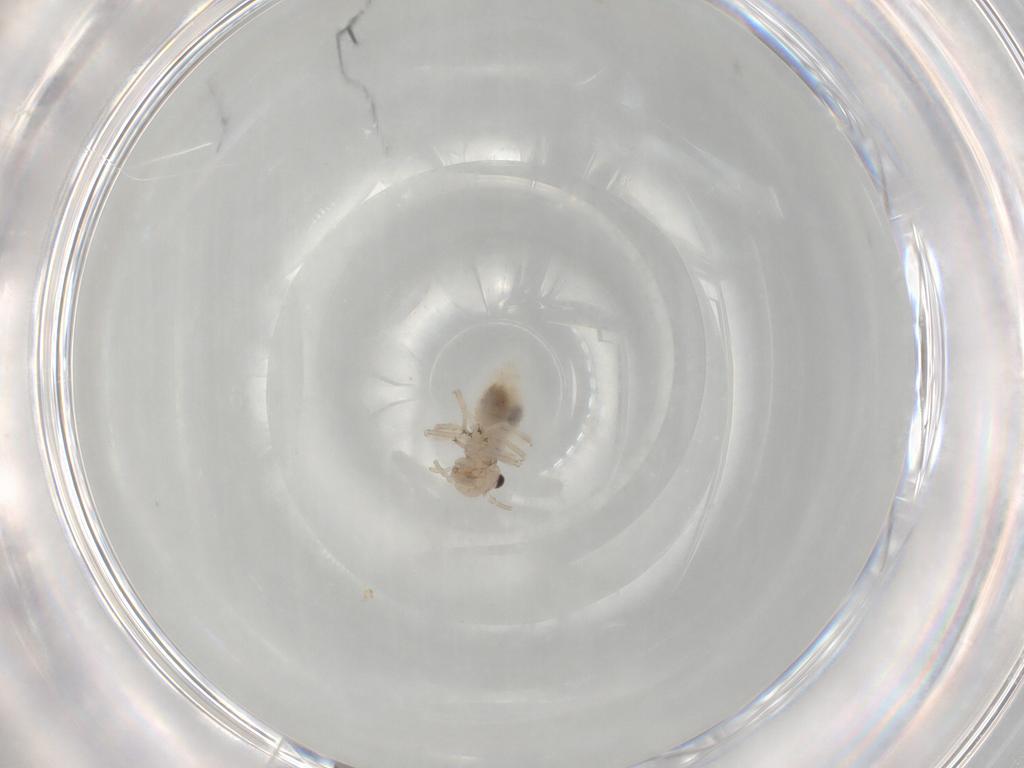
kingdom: Animalia
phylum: Arthropoda
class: Insecta
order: Psocodea
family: Amphipsocidae
